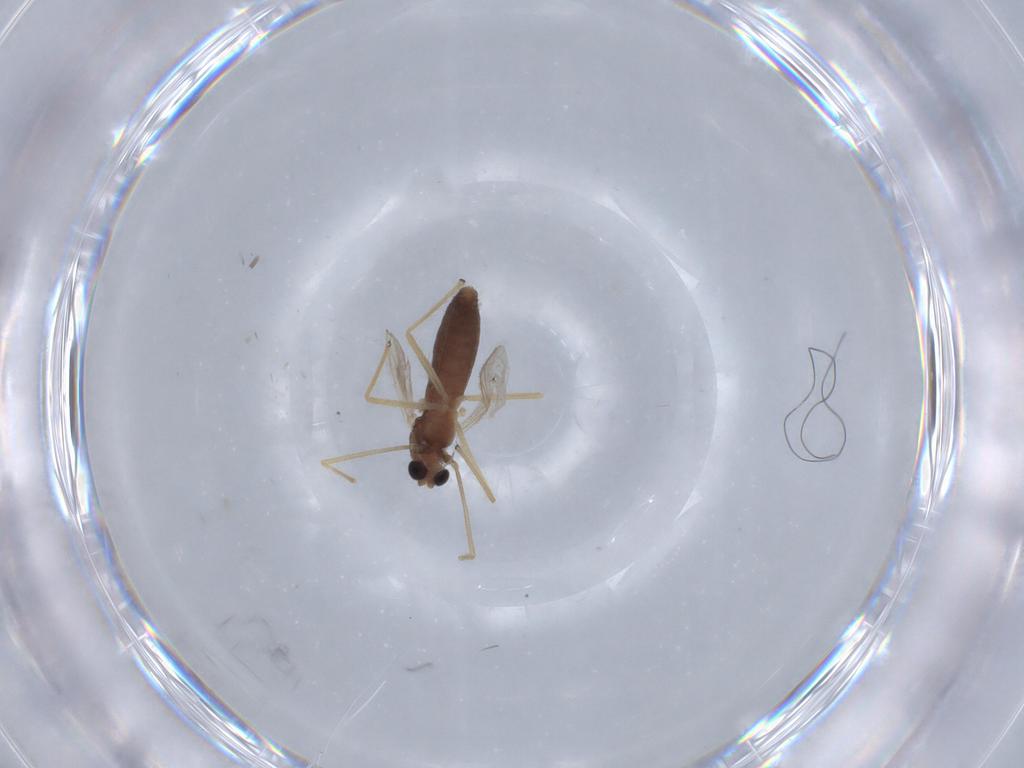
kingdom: Animalia
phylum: Arthropoda
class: Insecta
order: Diptera
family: Chironomidae
